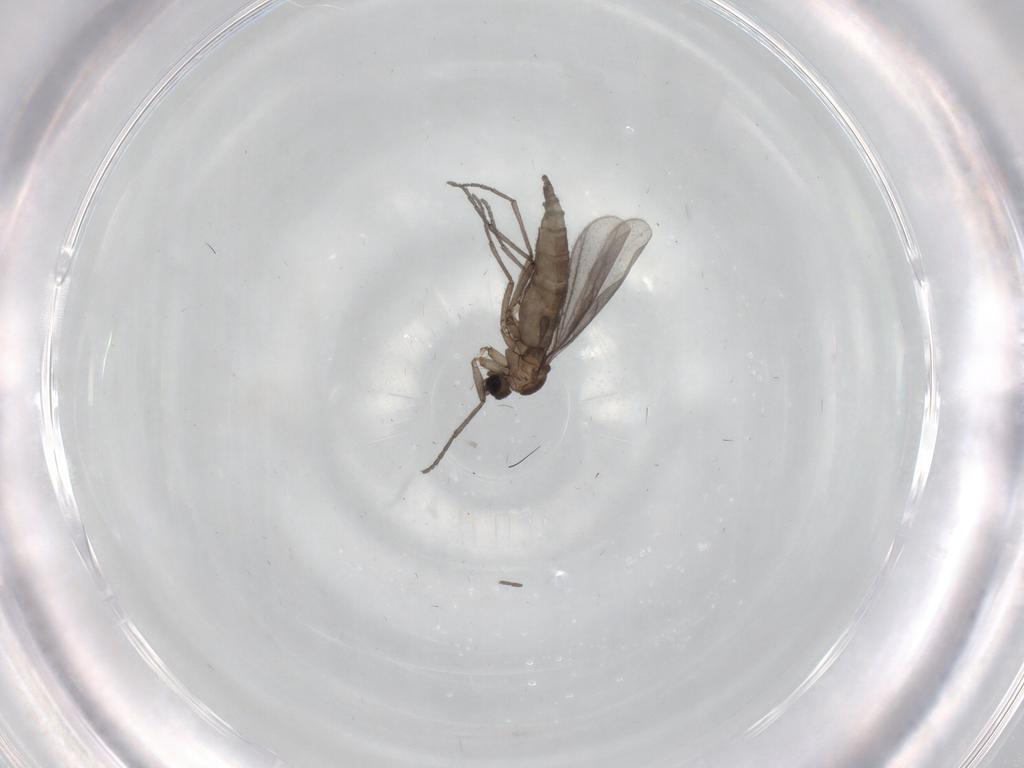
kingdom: Animalia
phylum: Arthropoda
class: Insecta
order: Diptera
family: Sciaridae
